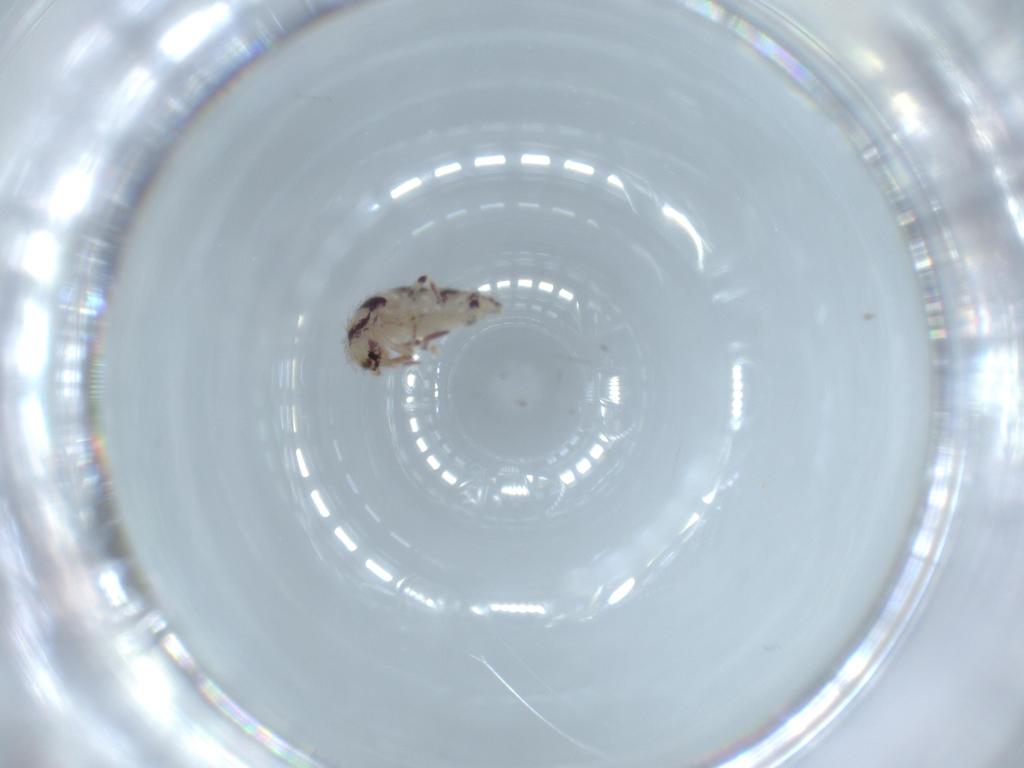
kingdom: Animalia
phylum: Arthropoda
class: Collembola
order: Entomobryomorpha
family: Entomobryidae
